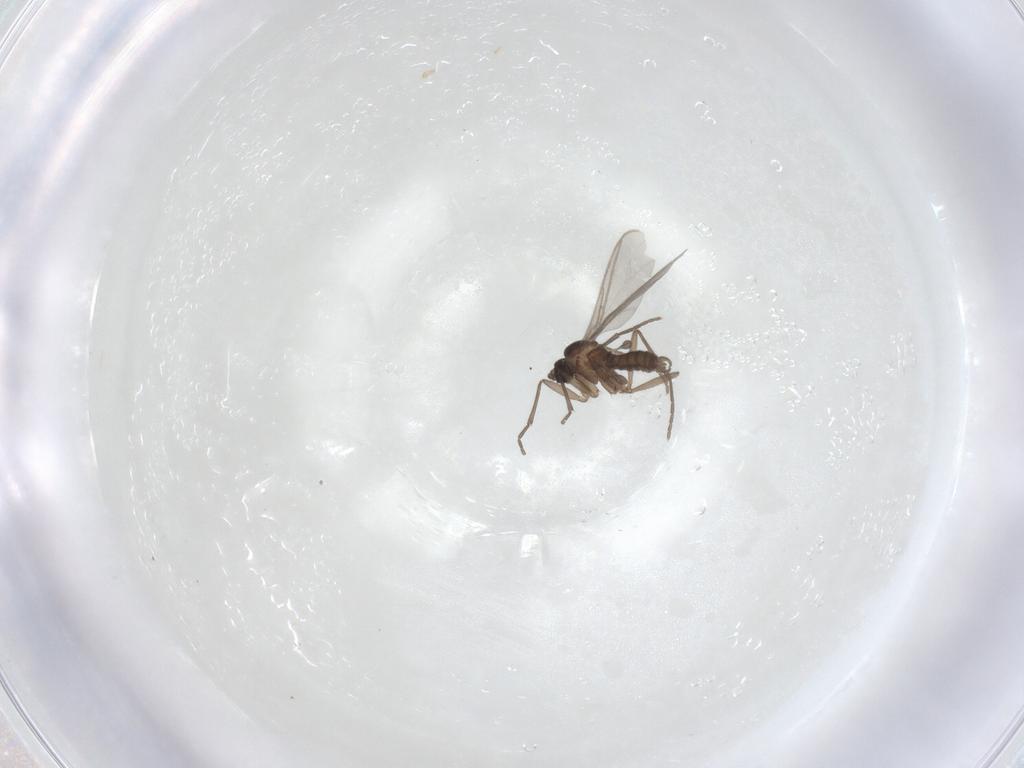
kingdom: Animalia
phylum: Arthropoda
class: Insecta
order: Diptera
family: Sciaridae
